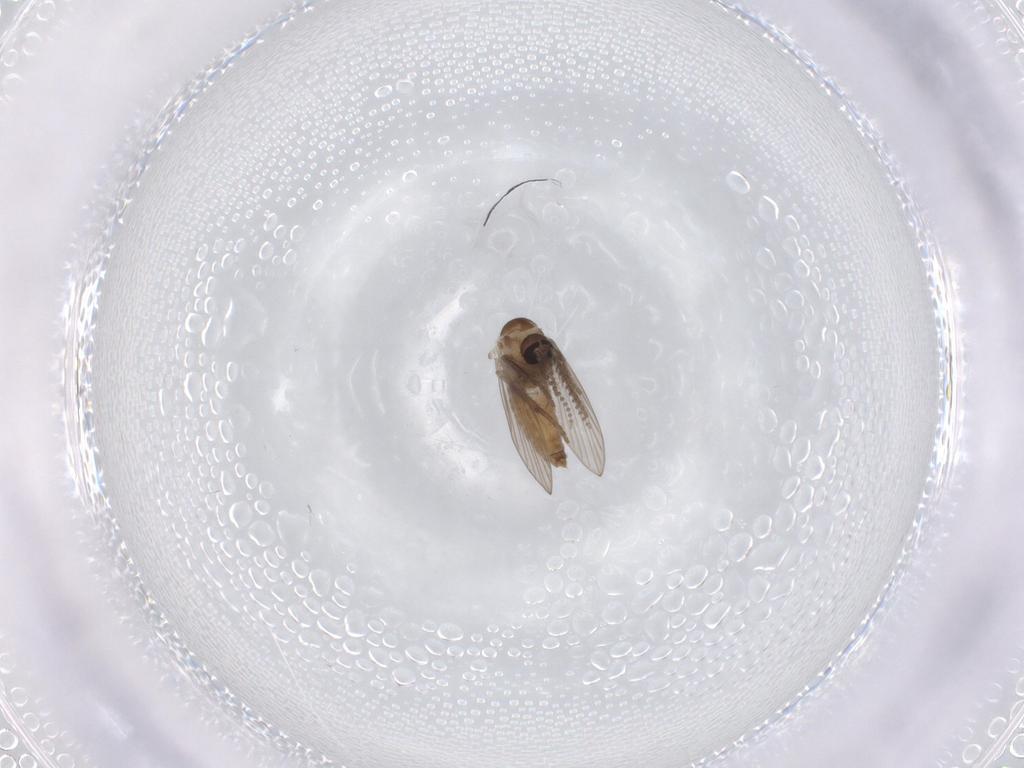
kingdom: Animalia
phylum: Arthropoda
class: Insecta
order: Diptera
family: Psychodidae
